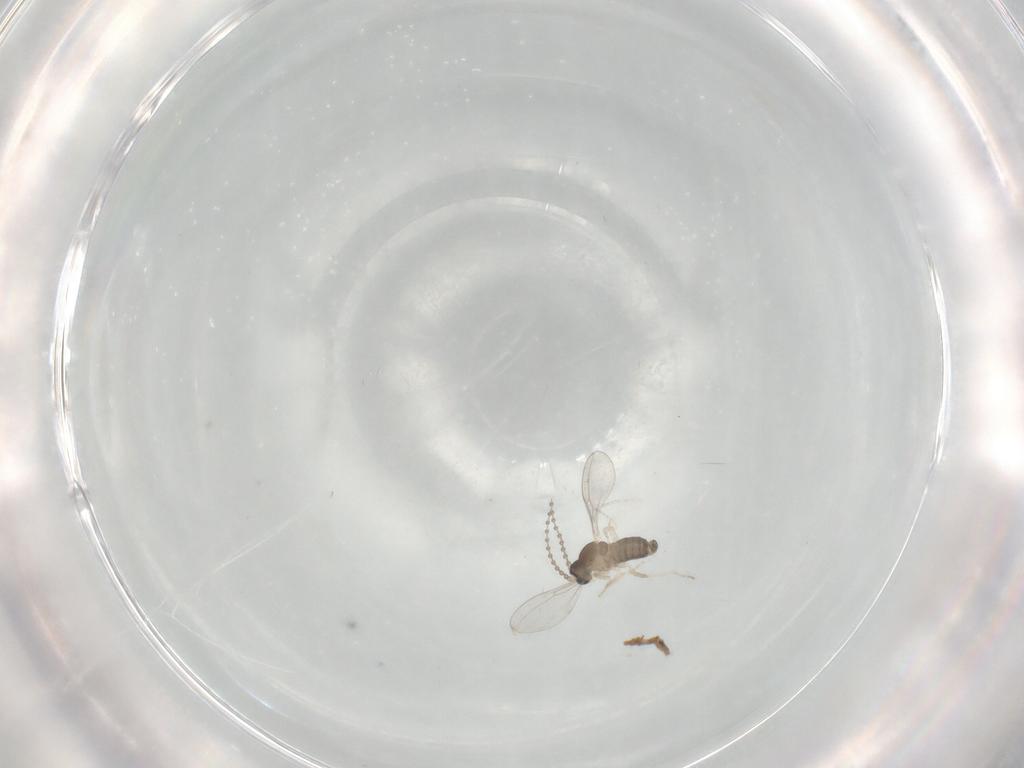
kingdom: Animalia
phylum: Arthropoda
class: Insecta
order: Diptera
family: Cecidomyiidae
